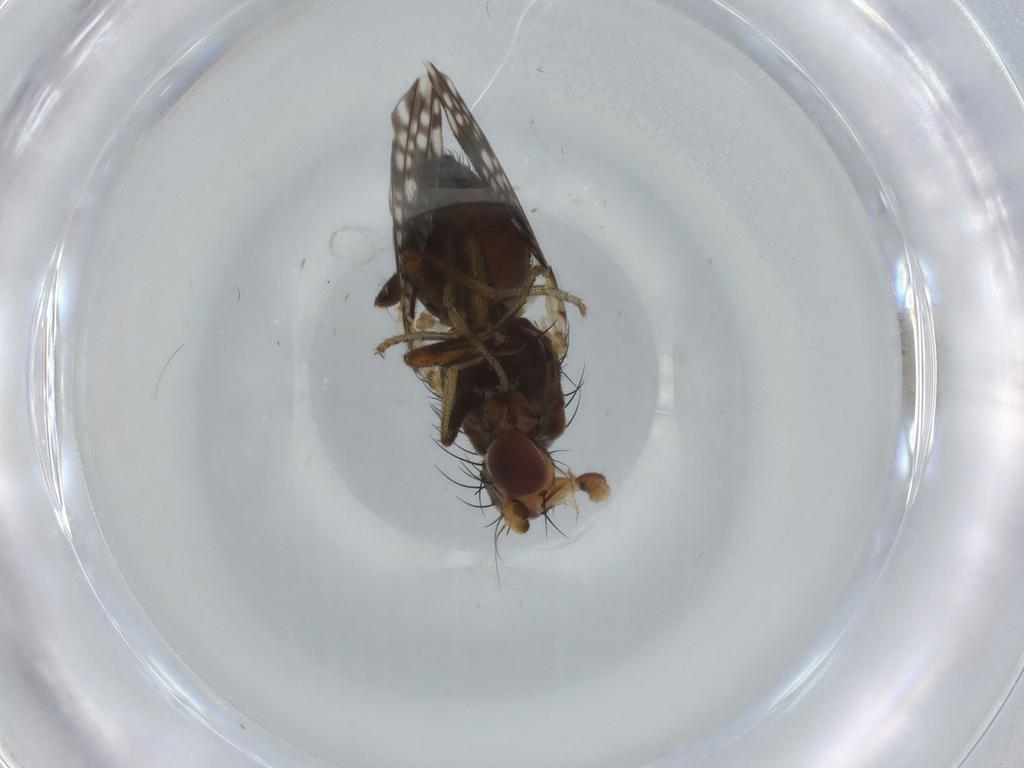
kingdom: Animalia
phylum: Arthropoda
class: Insecta
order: Diptera
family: Tephritidae
